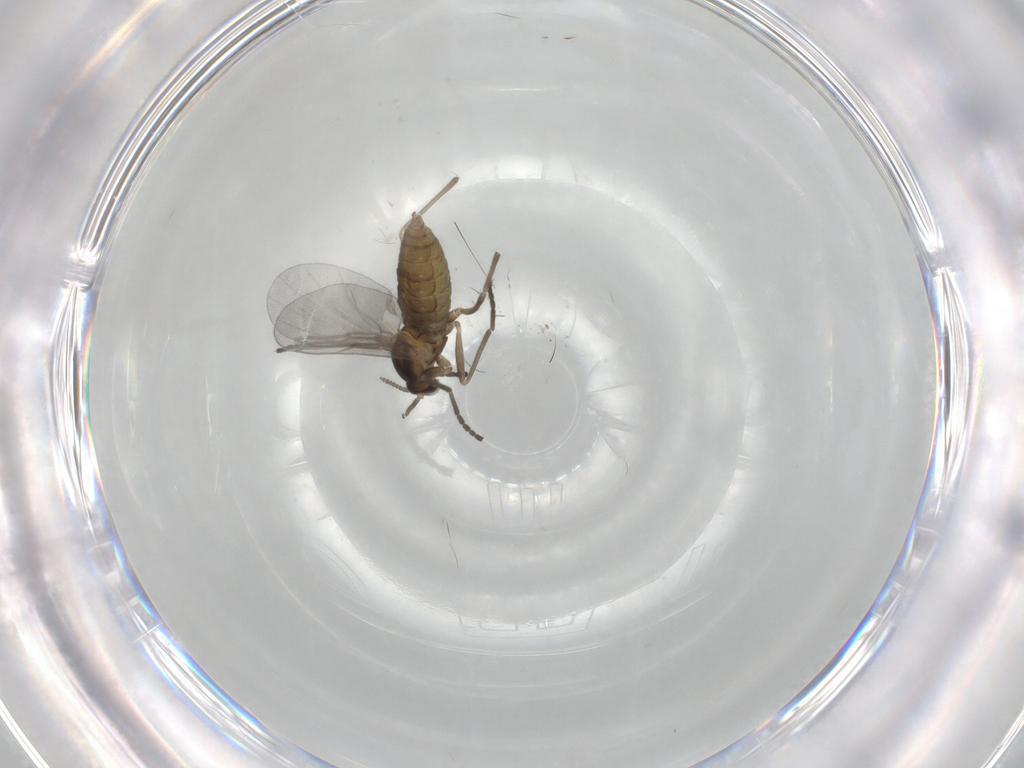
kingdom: Animalia
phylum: Arthropoda
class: Insecta
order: Diptera
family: Cecidomyiidae
